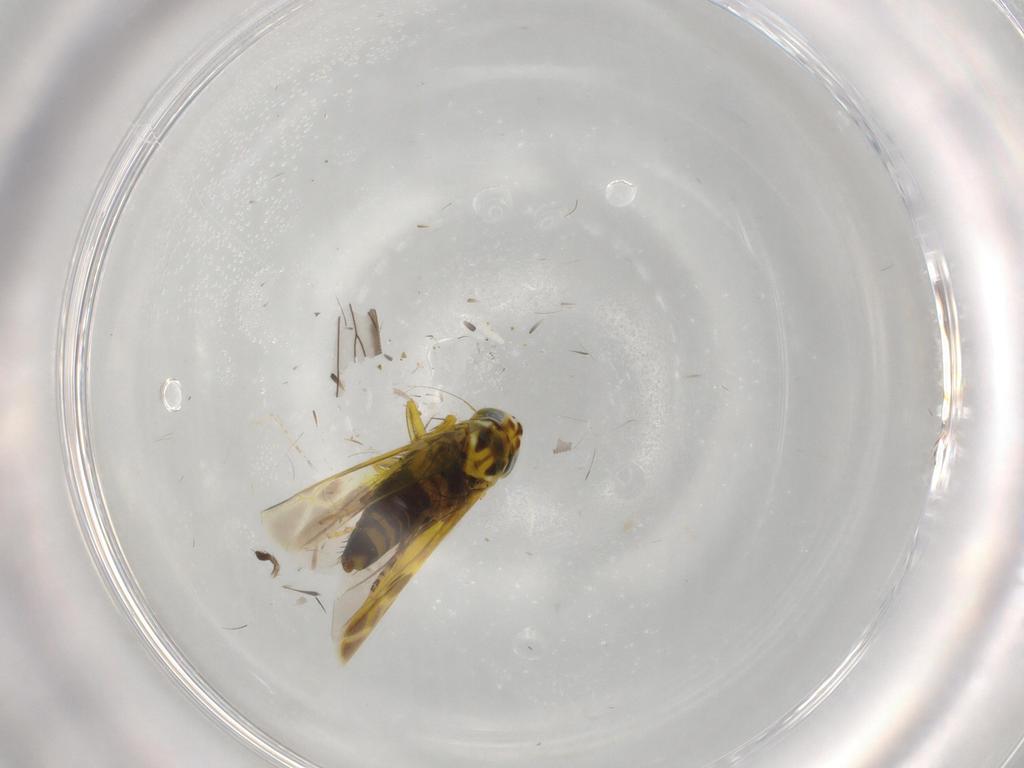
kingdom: Animalia
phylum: Arthropoda
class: Insecta
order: Hemiptera
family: Cicadellidae
